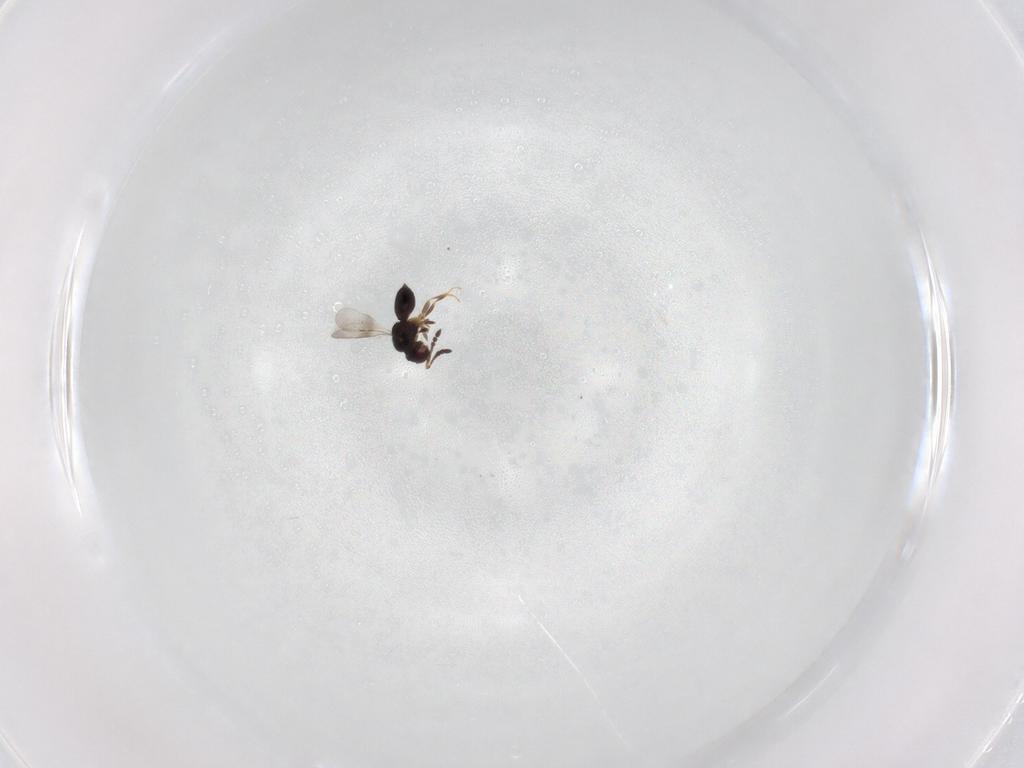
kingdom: Animalia
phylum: Arthropoda
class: Insecta
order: Hymenoptera
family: Scelionidae
